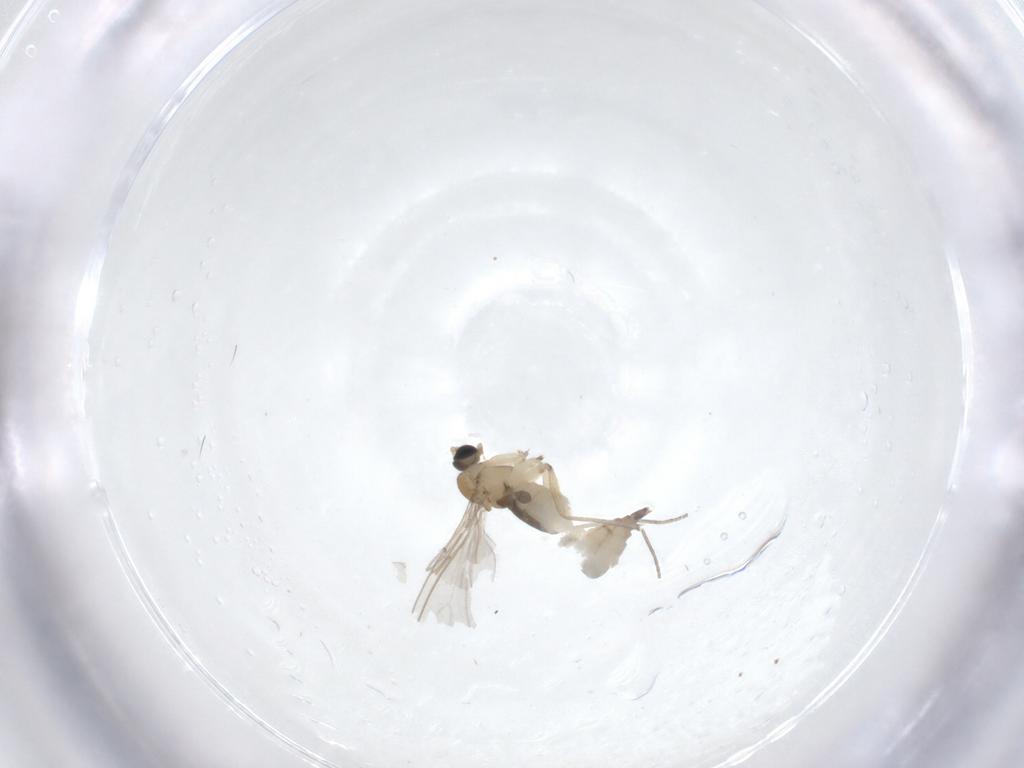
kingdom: Animalia
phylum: Arthropoda
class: Insecta
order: Diptera
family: Sciaridae
